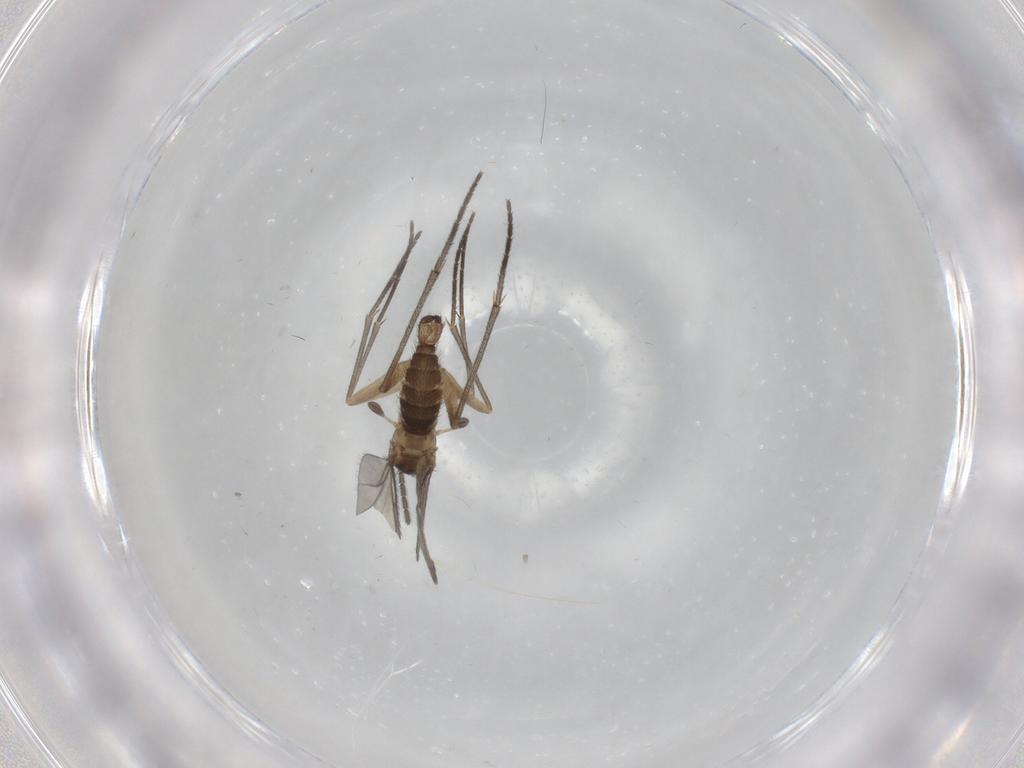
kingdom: Animalia
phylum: Arthropoda
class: Insecta
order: Diptera
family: Sciaridae
